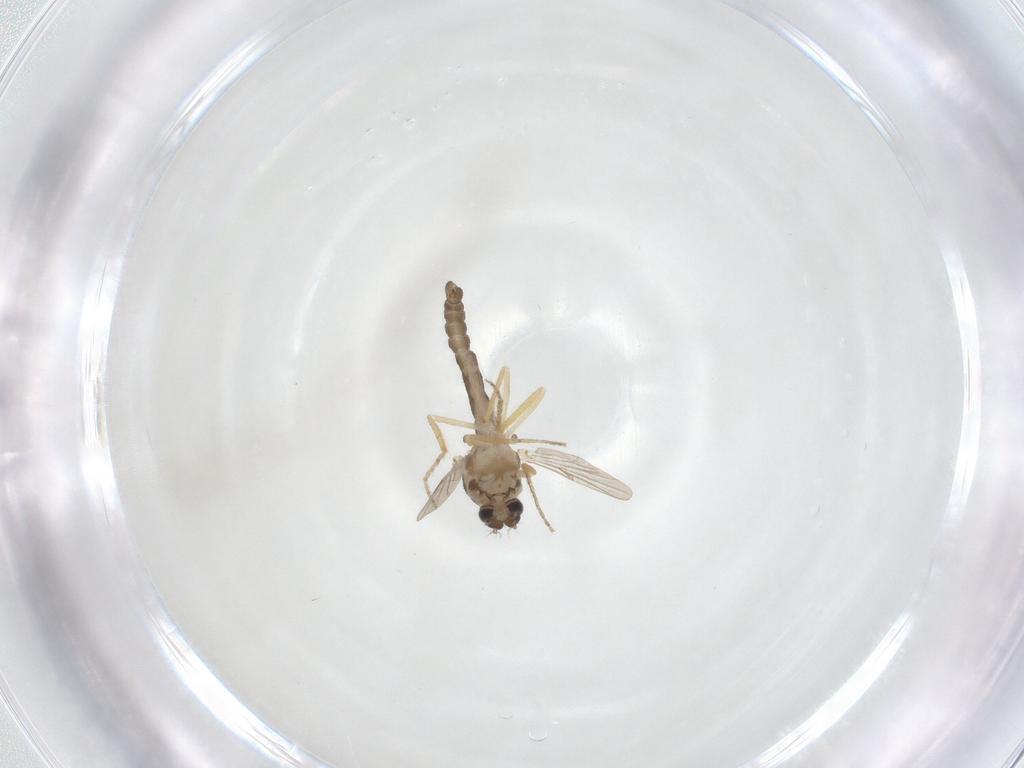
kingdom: Animalia
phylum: Arthropoda
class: Insecta
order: Diptera
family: Ceratopogonidae
